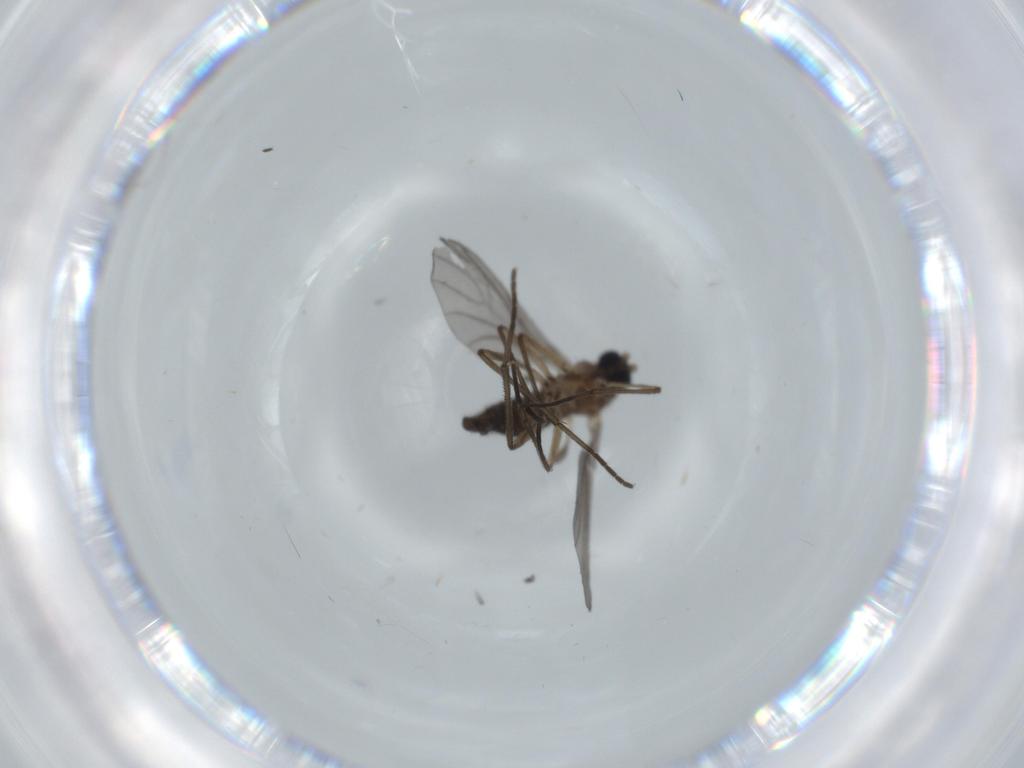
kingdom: Animalia
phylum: Arthropoda
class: Insecta
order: Diptera
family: Sciaridae
